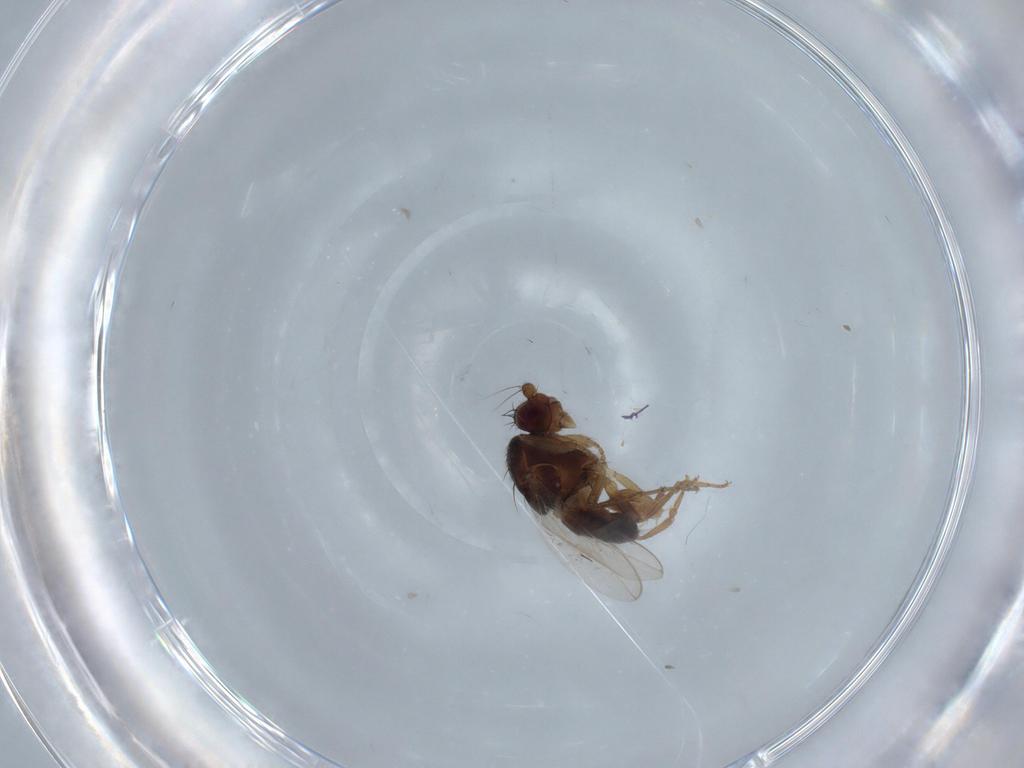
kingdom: Animalia
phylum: Arthropoda
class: Insecta
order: Diptera
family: Cecidomyiidae
